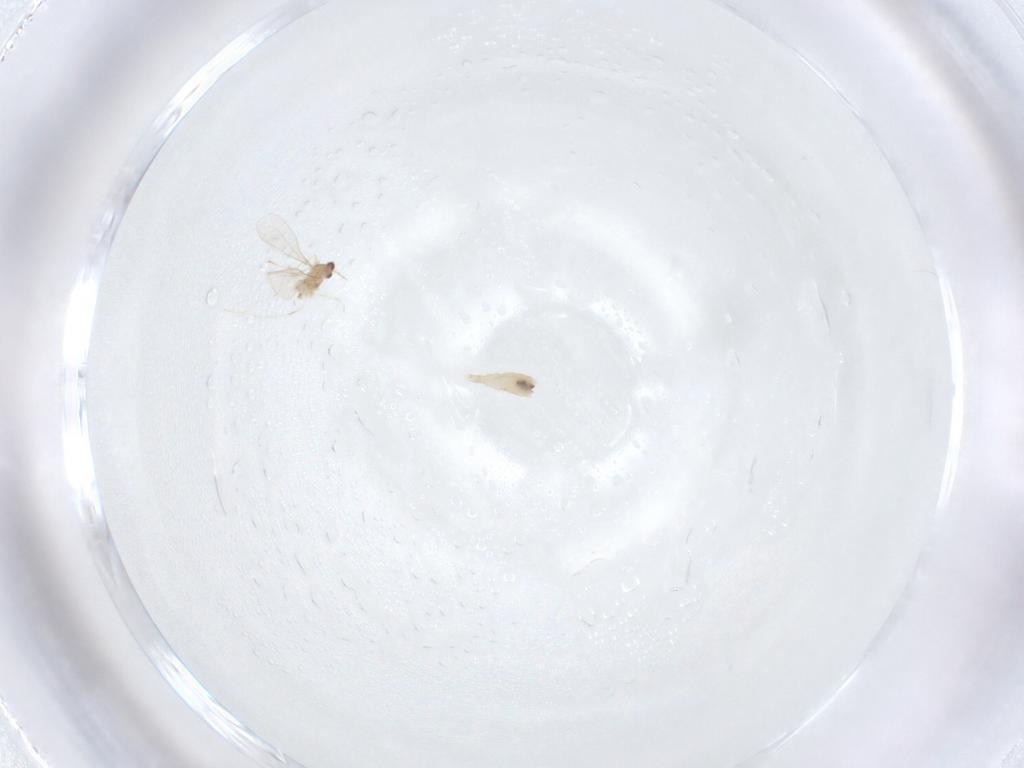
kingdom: Animalia
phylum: Arthropoda
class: Insecta
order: Diptera
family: Cecidomyiidae
